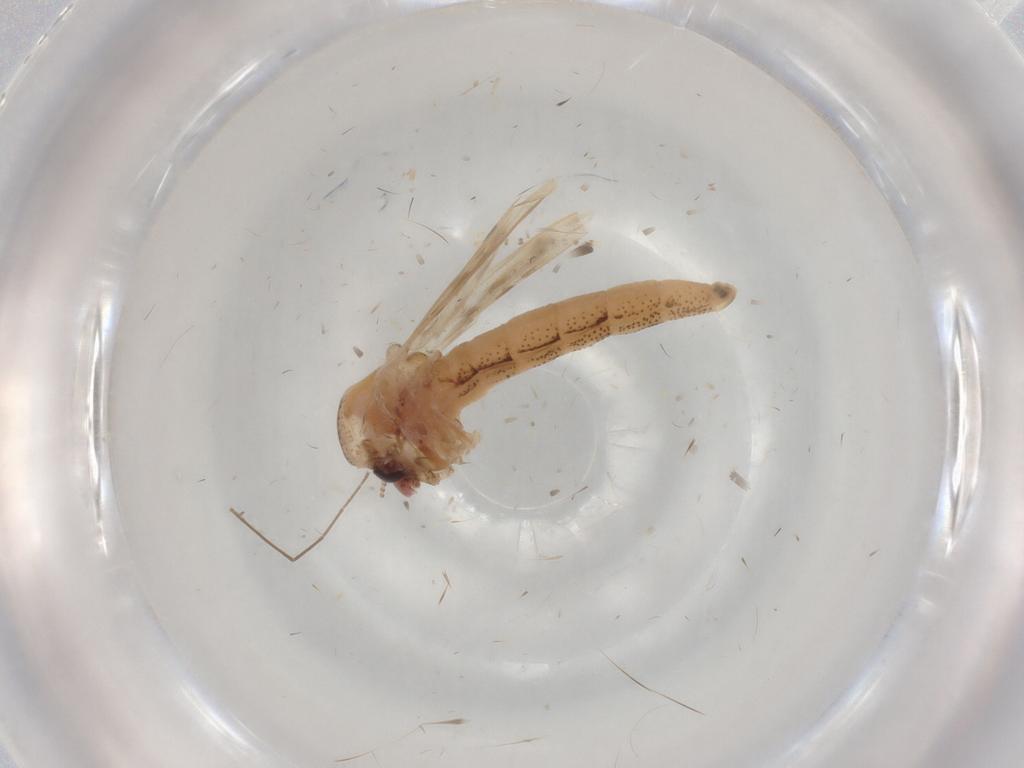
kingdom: Animalia
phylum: Arthropoda
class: Insecta
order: Diptera
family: Chaoboridae
